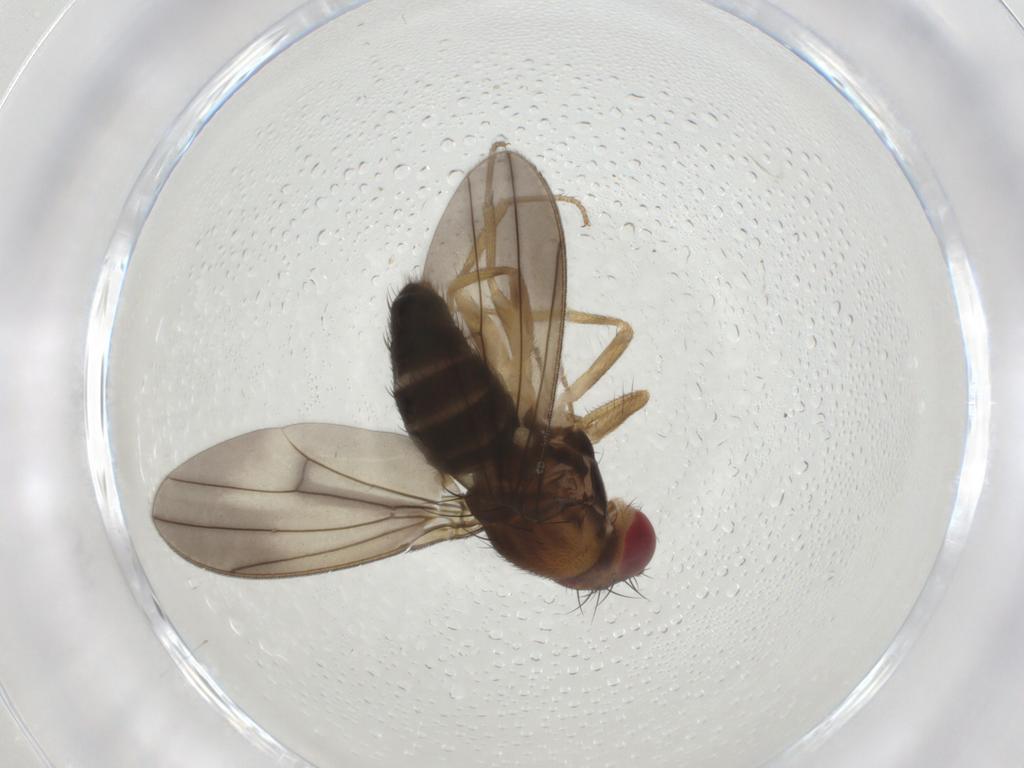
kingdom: Animalia
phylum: Arthropoda
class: Insecta
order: Diptera
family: Drosophilidae
